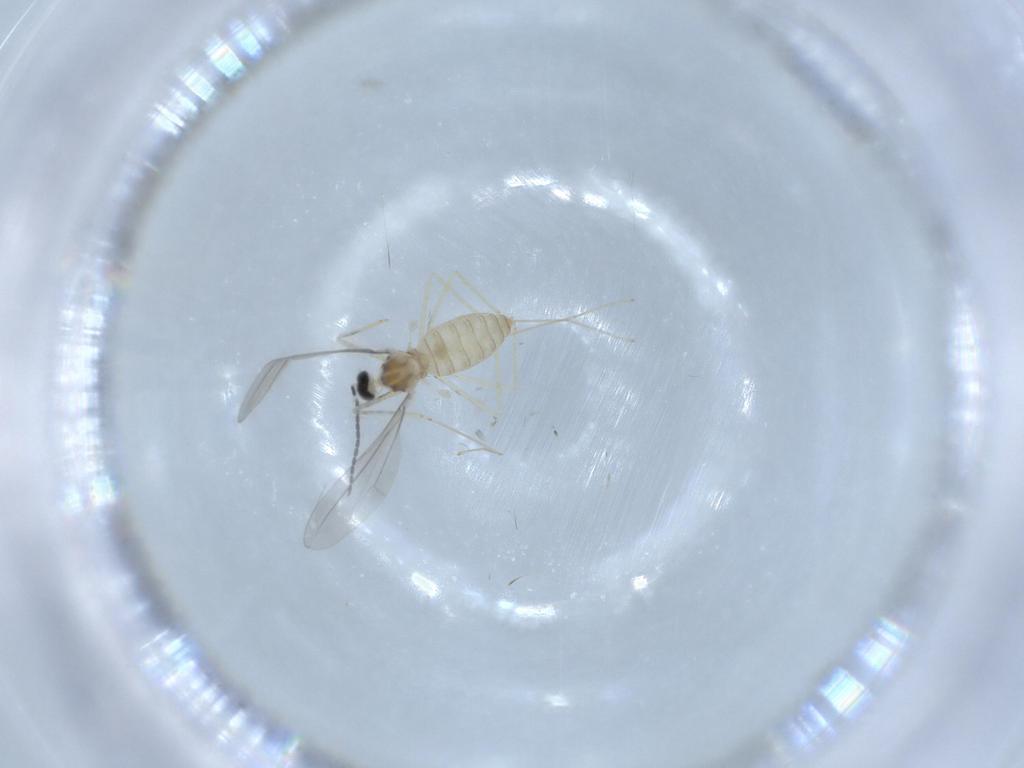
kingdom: Animalia
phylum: Arthropoda
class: Insecta
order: Diptera
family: Cecidomyiidae
